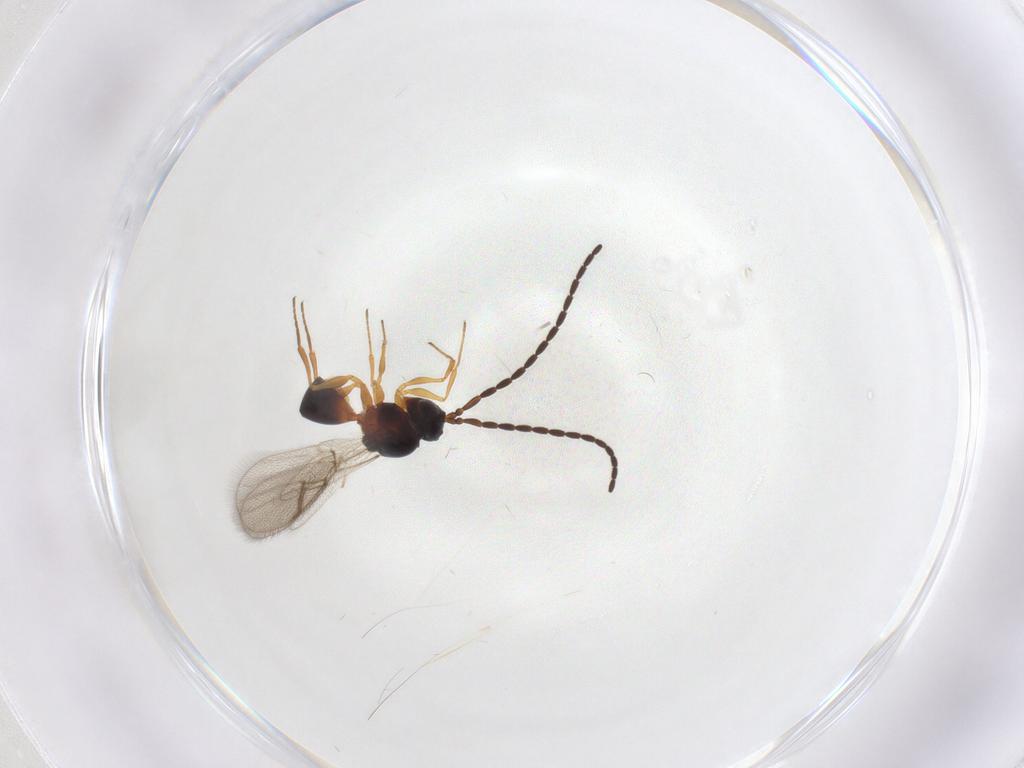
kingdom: Animalia
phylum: Arthropoda
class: Insecta
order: Hymenoptera
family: Figitidae
